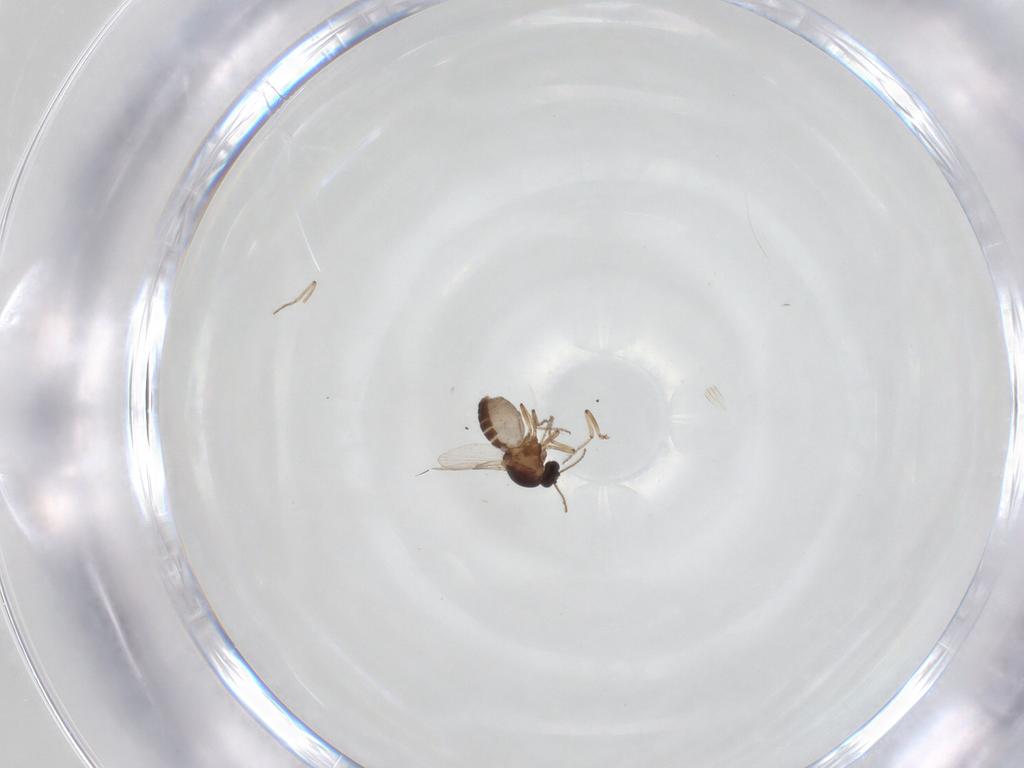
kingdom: Animalia
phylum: Arthropoda
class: Insecta
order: Diptera
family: Ceratopogonidae
